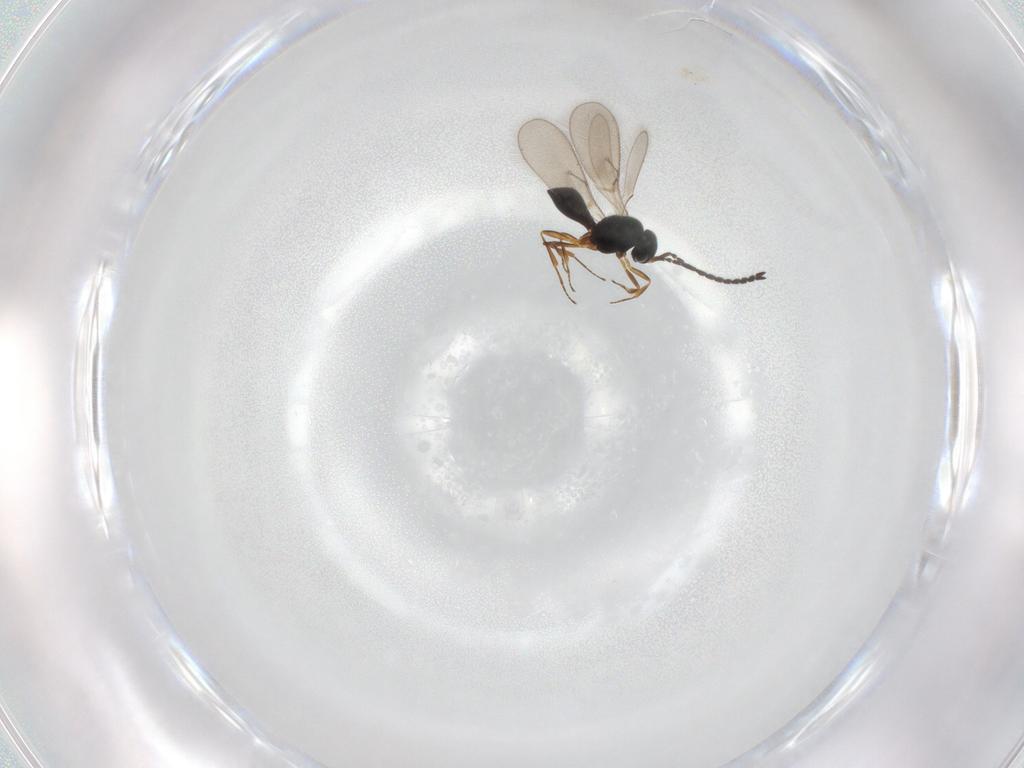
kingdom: Animalia
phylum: Arthropoda
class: Insecta
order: Hymenoptera
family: Scelionidae
